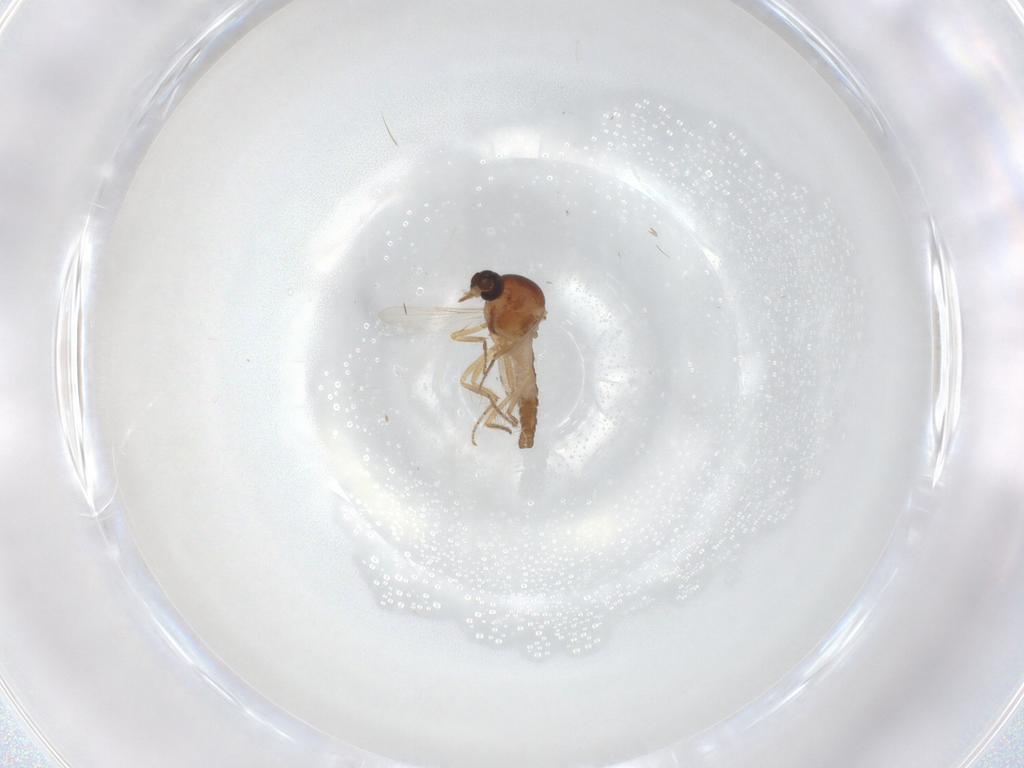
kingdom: Animalia
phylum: Arthropoda
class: Insecta
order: Diptera
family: Ceratopogonidae
